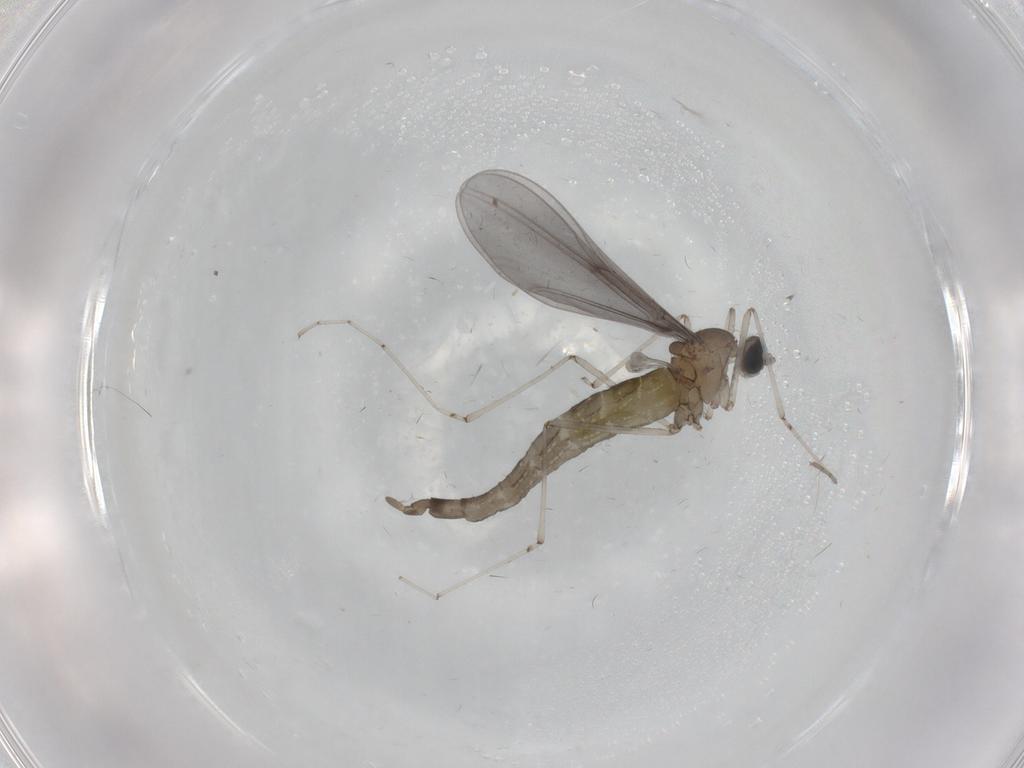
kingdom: Animalia
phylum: Arthropoda
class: Insecta
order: Diptera
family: Cecidomyiidae
